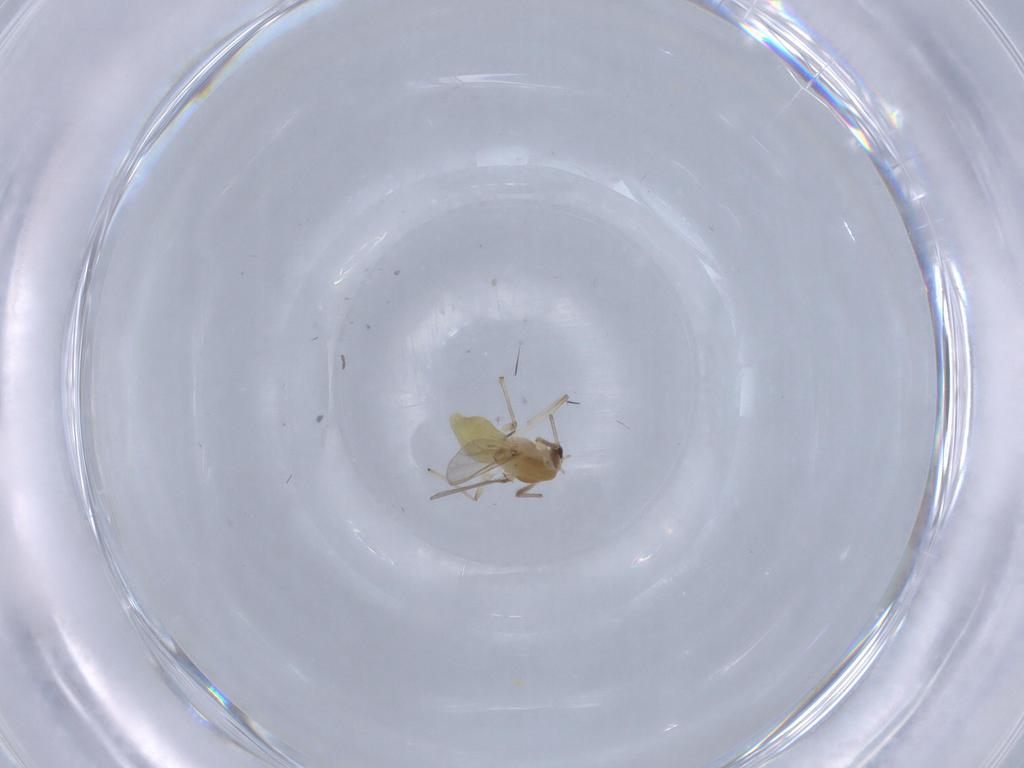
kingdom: Animalia
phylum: Arthropoda
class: Insecta
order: Diptera
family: Chironomidae
